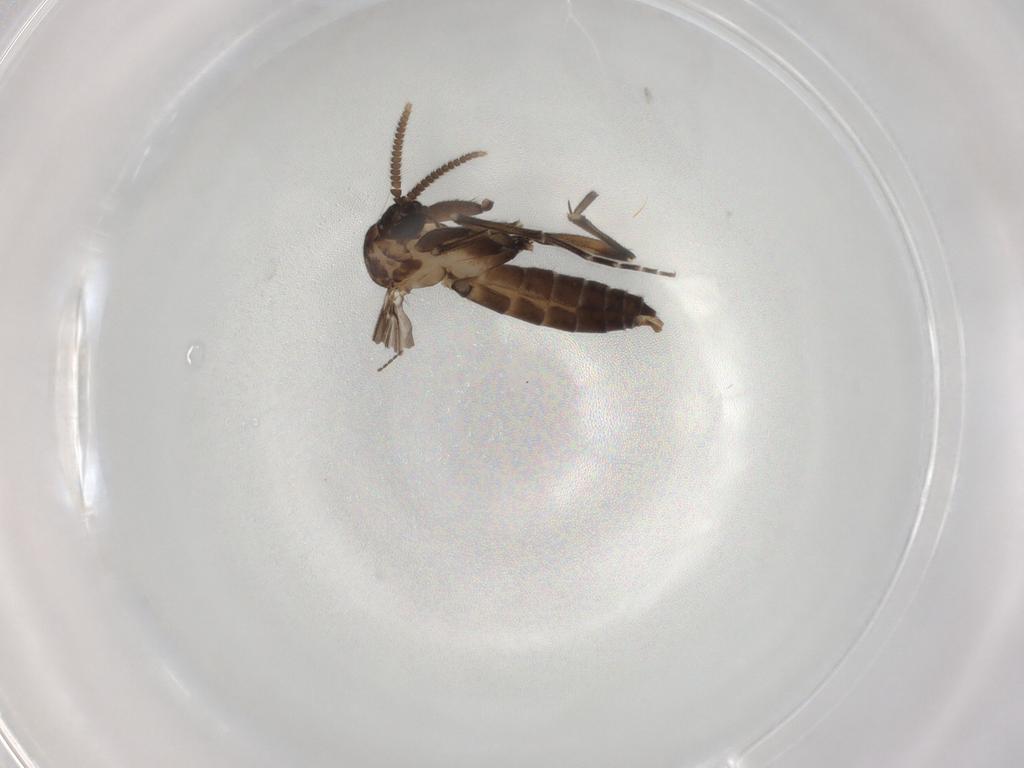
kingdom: Animalia
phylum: Arthropoda
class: Insecta
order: Diptera
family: Mycetophilidae
